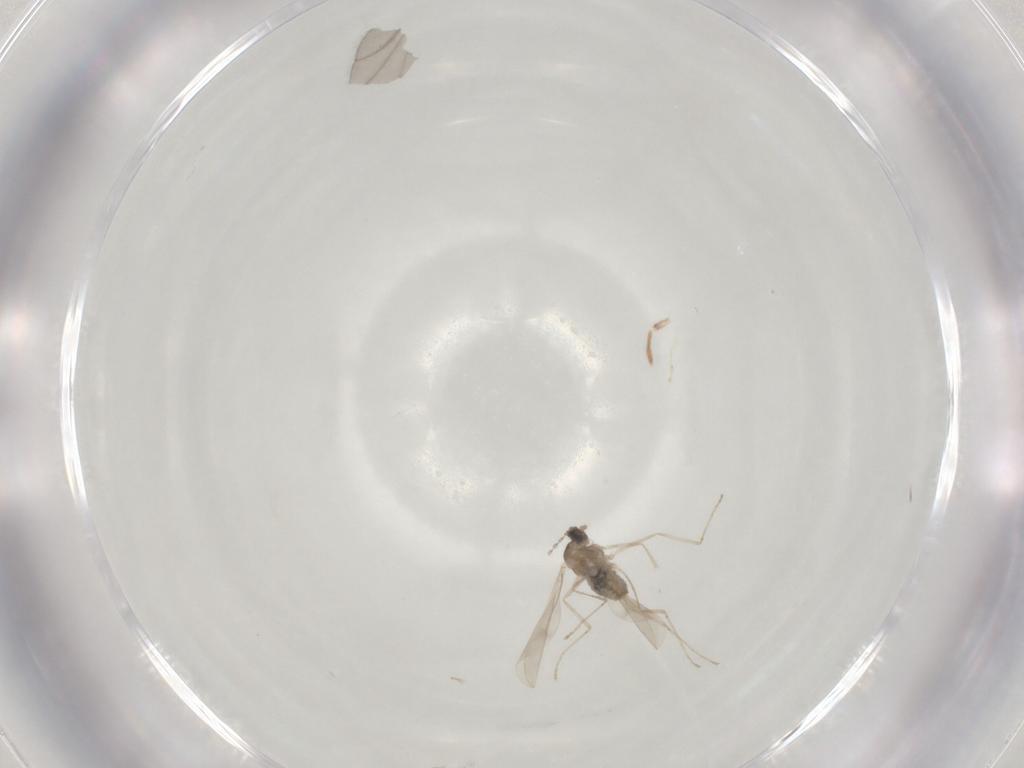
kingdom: Animalia
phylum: Arthropoda
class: Insecta
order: Diptera
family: Cecidomyiidae
